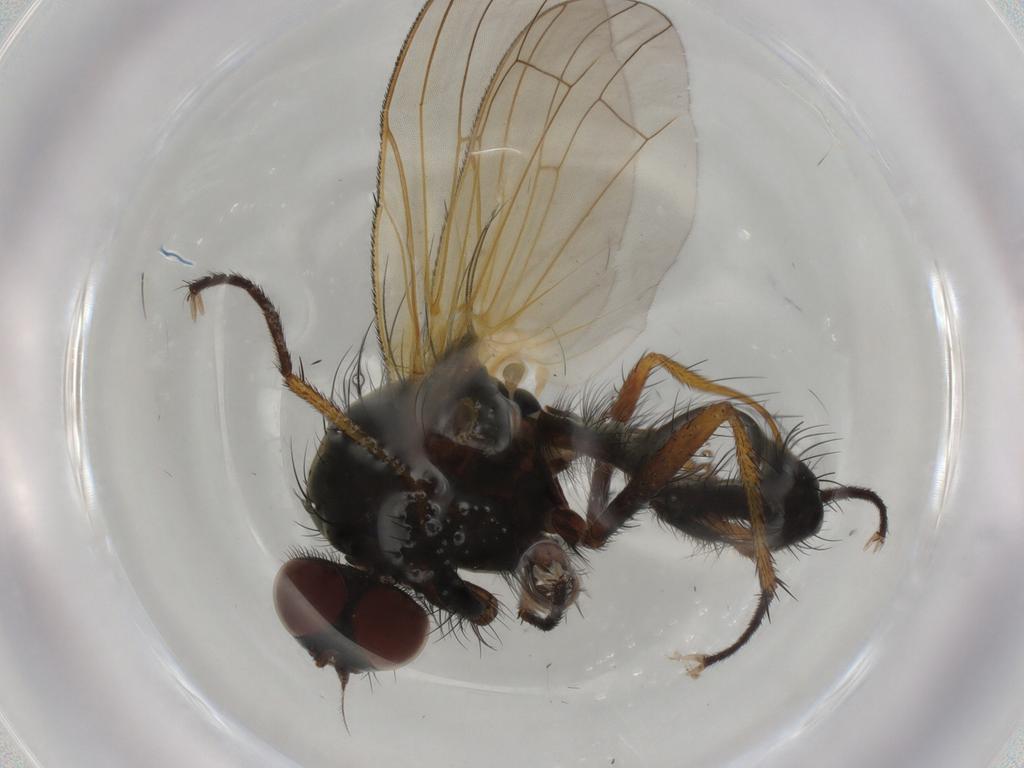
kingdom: Animalia
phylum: Arthropoda
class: Insecta
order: Diptera
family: Anthomyiidae
